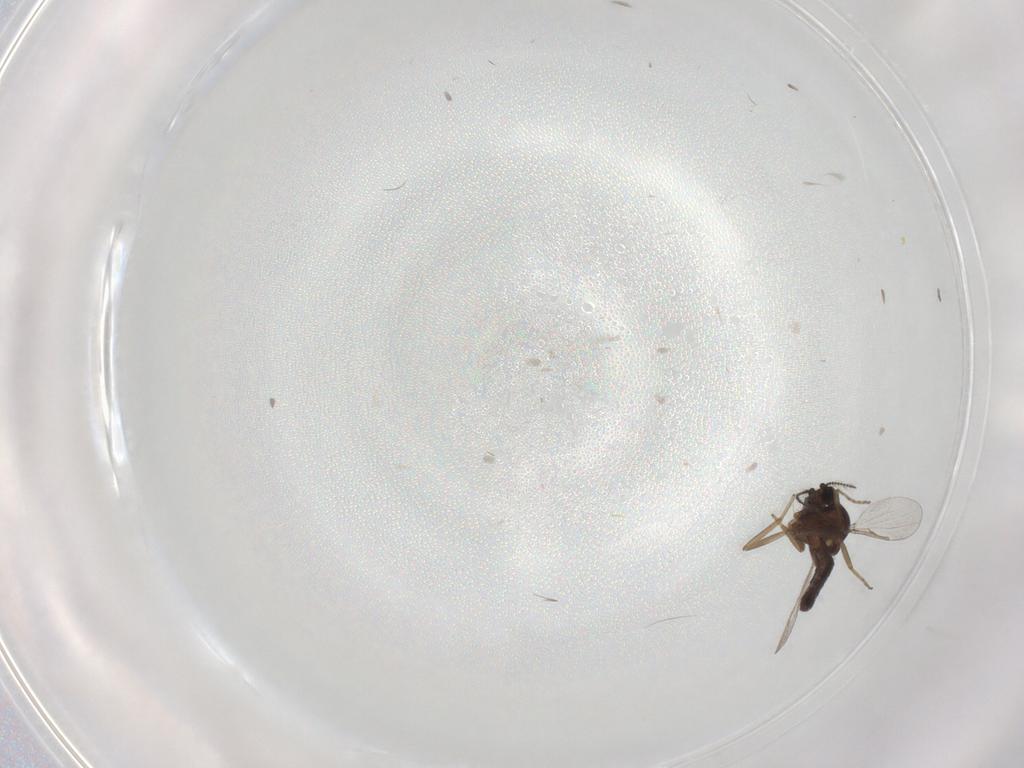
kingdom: Animalia
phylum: Arthropoda
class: Insecta
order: Diptera
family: Ceratopogonidae
